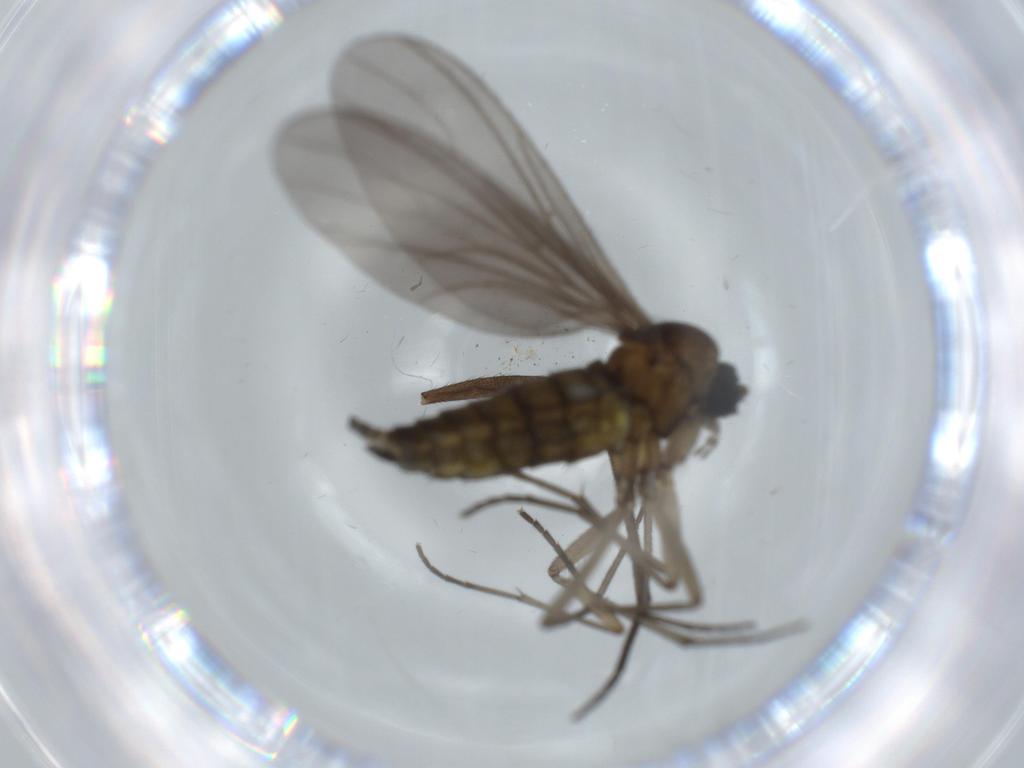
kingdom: Animalia
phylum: Arthropoda
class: Insecta
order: Diptera
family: Sciaridae
